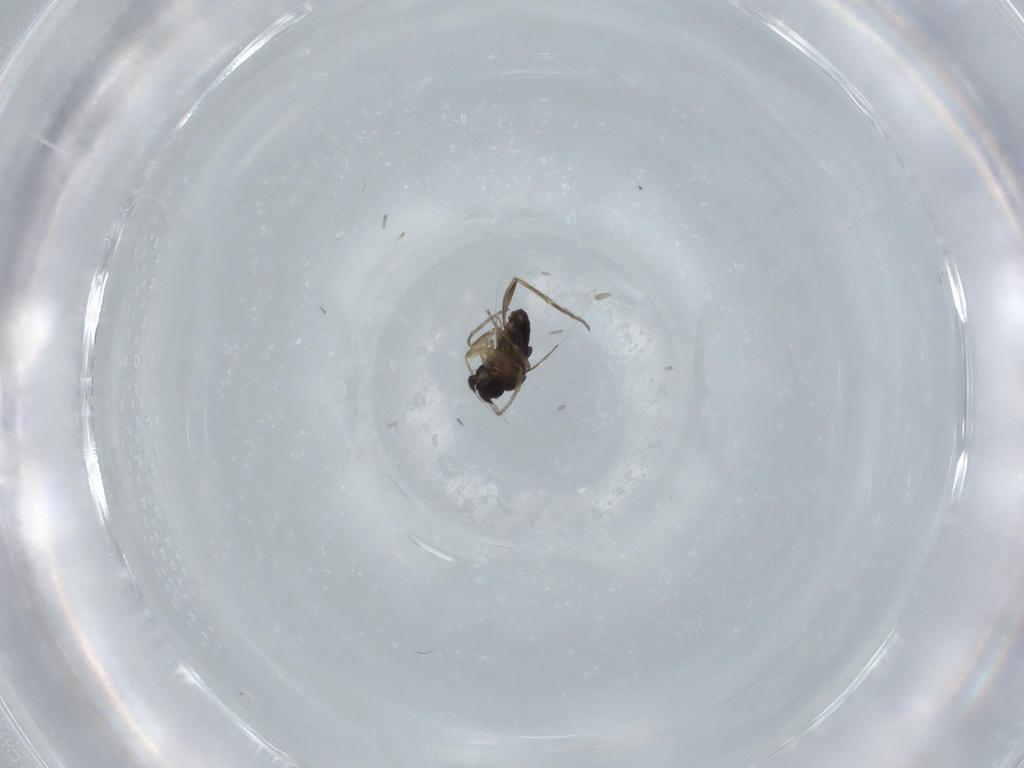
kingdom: Animalia
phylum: Arthropoda
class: Insecta
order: Diptera
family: Phoridae
